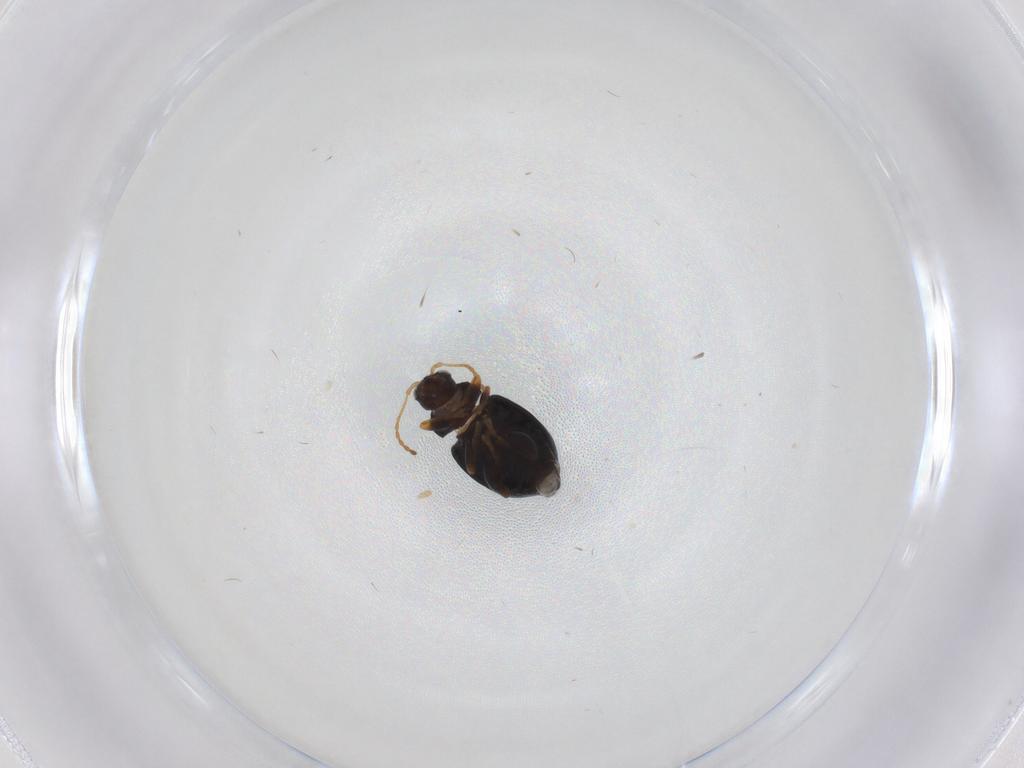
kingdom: Animalia
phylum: Arthropoda
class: Insecta
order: Coleoptera
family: Chrysomelidae
